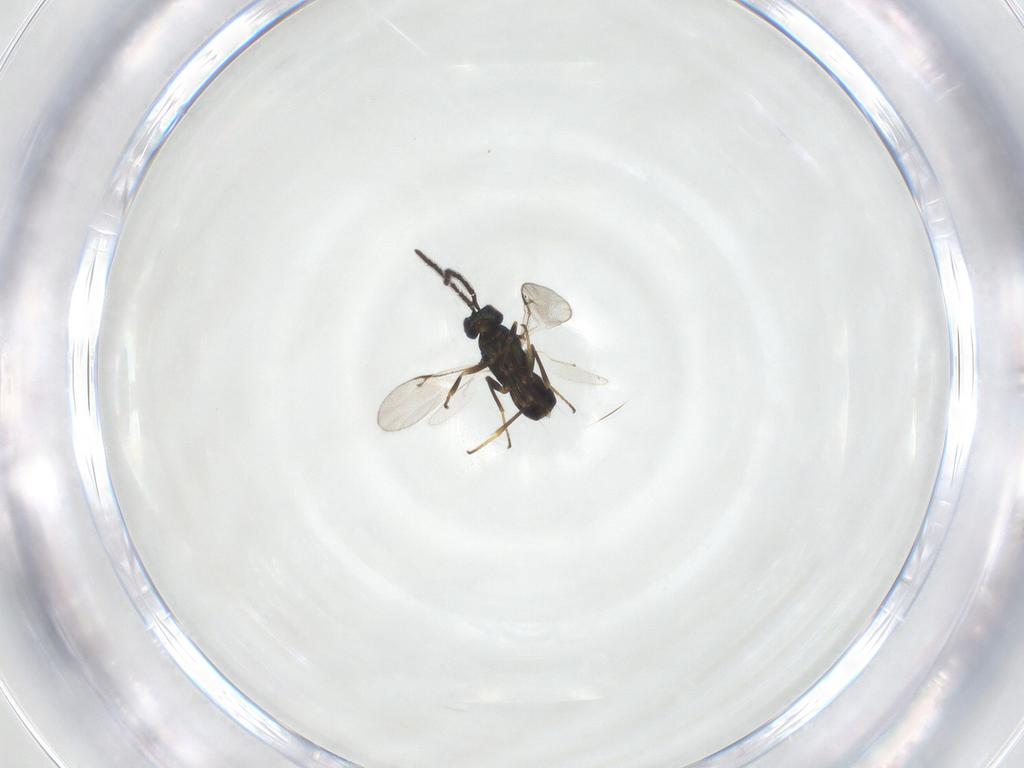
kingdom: Animalia
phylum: Arthropoda
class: Insecta
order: Hymenoptera
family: Encyrtidae
